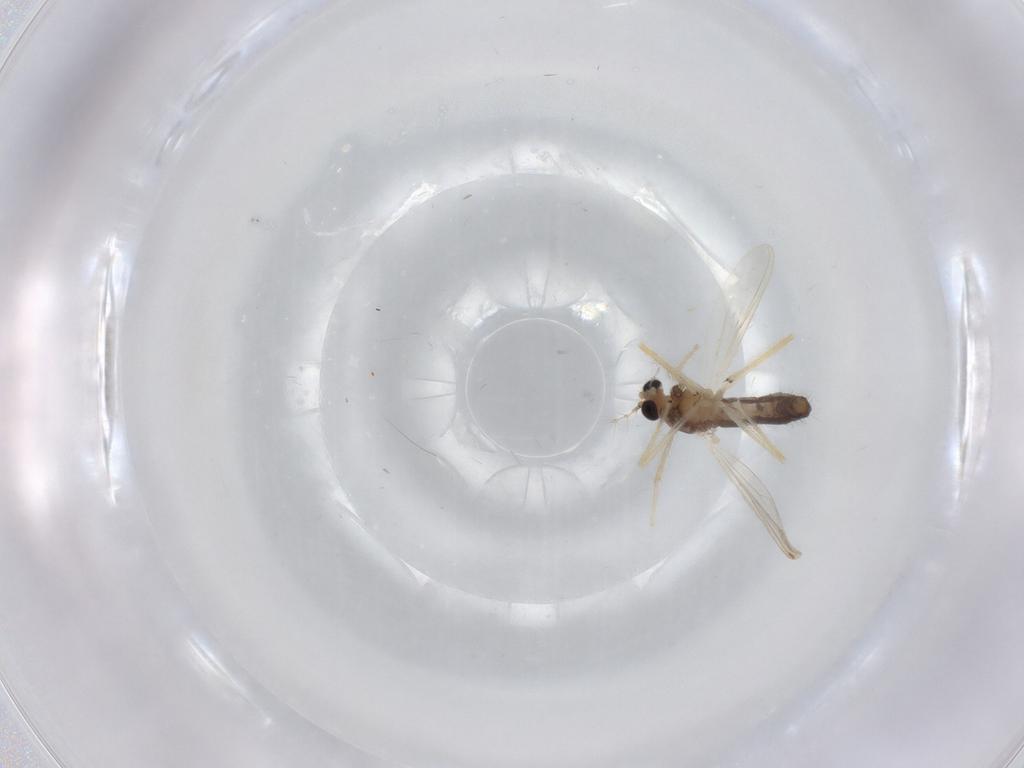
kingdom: Animalia
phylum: Arthropoda
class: Insecta
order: Diptera
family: Chironomidae
